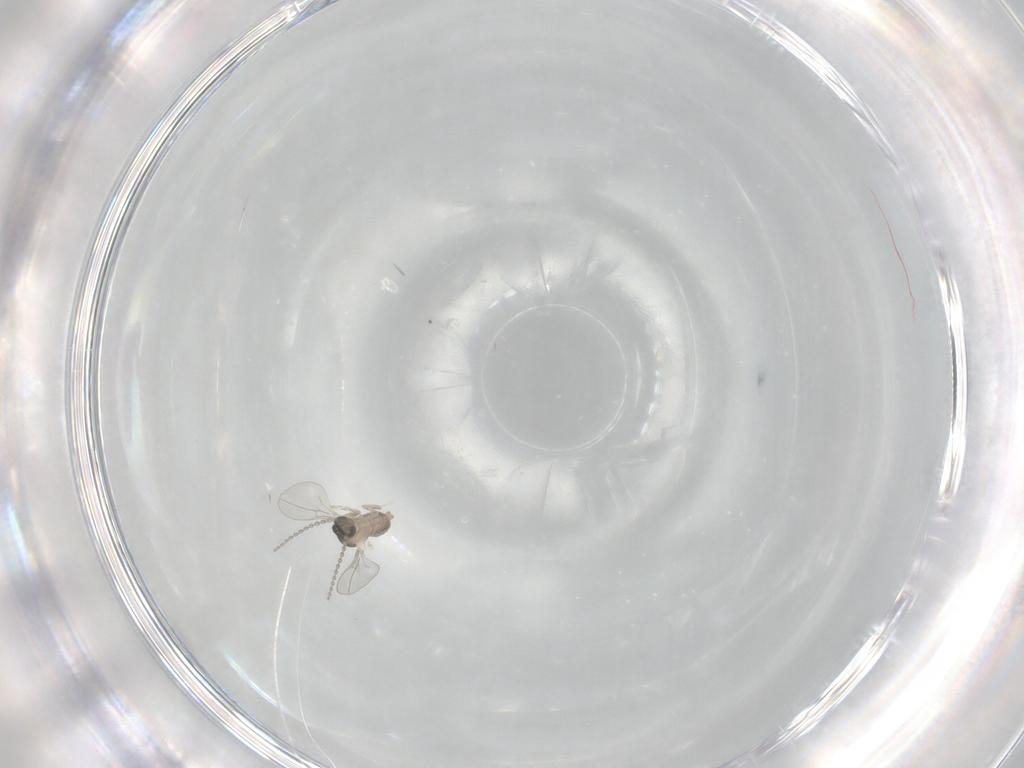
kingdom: Animalia
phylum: Arthropoda
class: Insecta
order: Diptera
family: Cecidomyiidae
